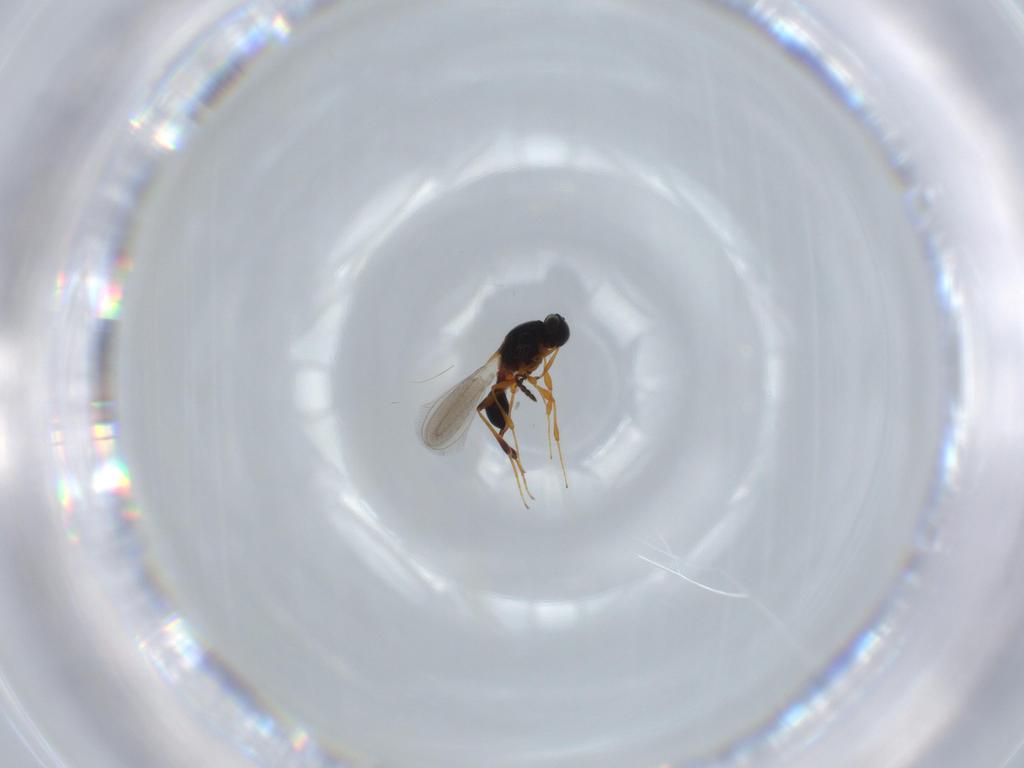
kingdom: Animalia
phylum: Arthropoda
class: Insecta
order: Hymenoptera
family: Platygastridae
